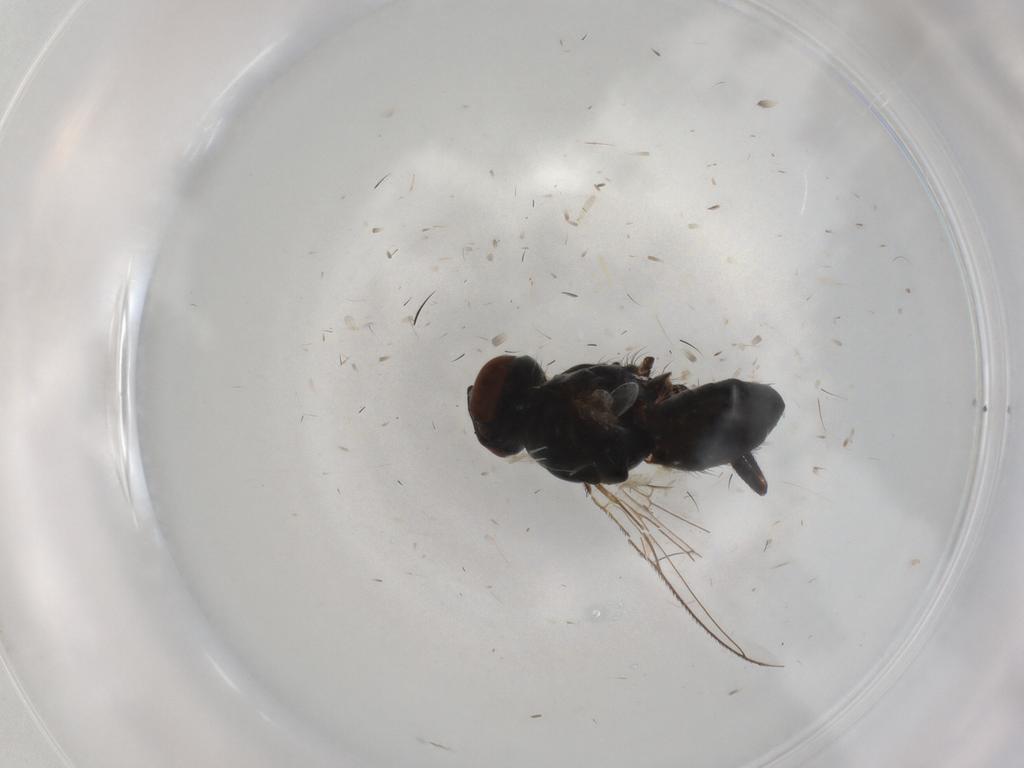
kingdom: Animalia
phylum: Arthropoda
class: Insecta
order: Diptera
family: Muscidae
